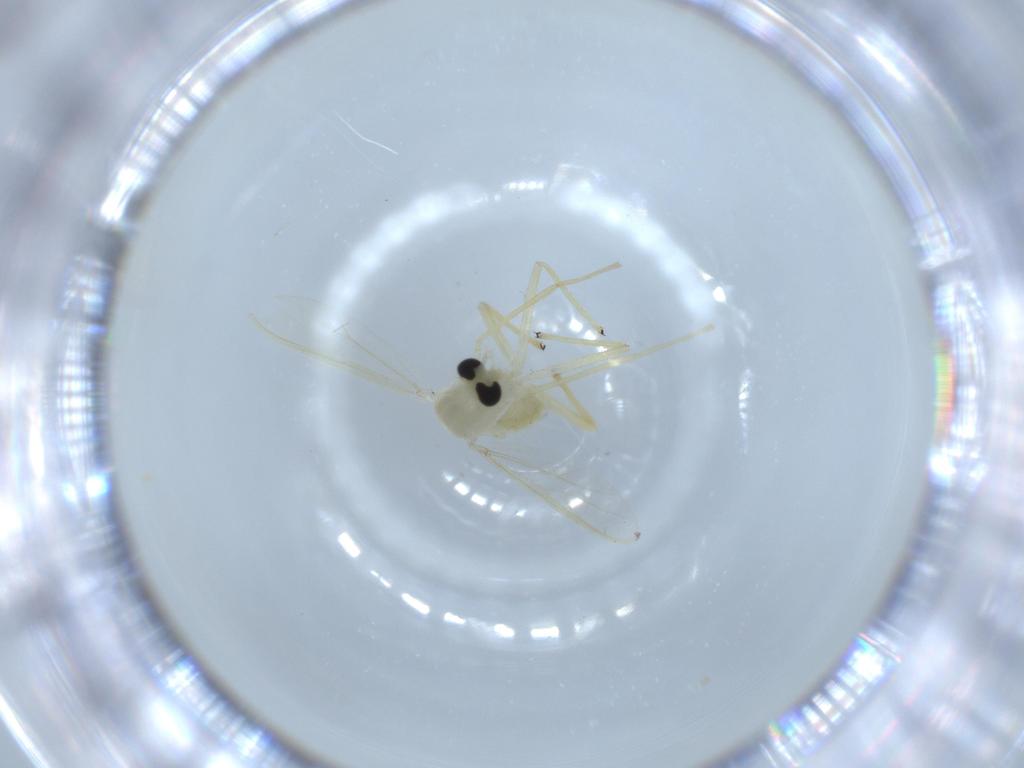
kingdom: Animalia
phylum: Arthropoda
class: Insecta
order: Diptera
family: Chironomidae
